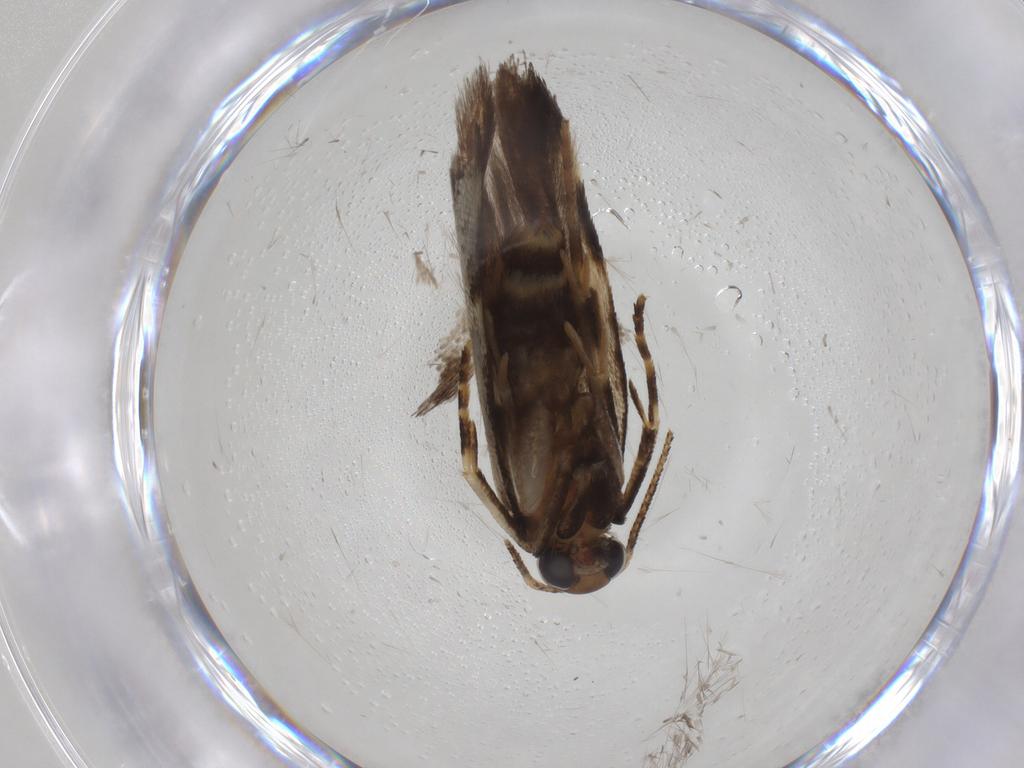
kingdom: Animalia
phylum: Arthropoda
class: Insecta
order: Lepidoptera
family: Gelechiidae
